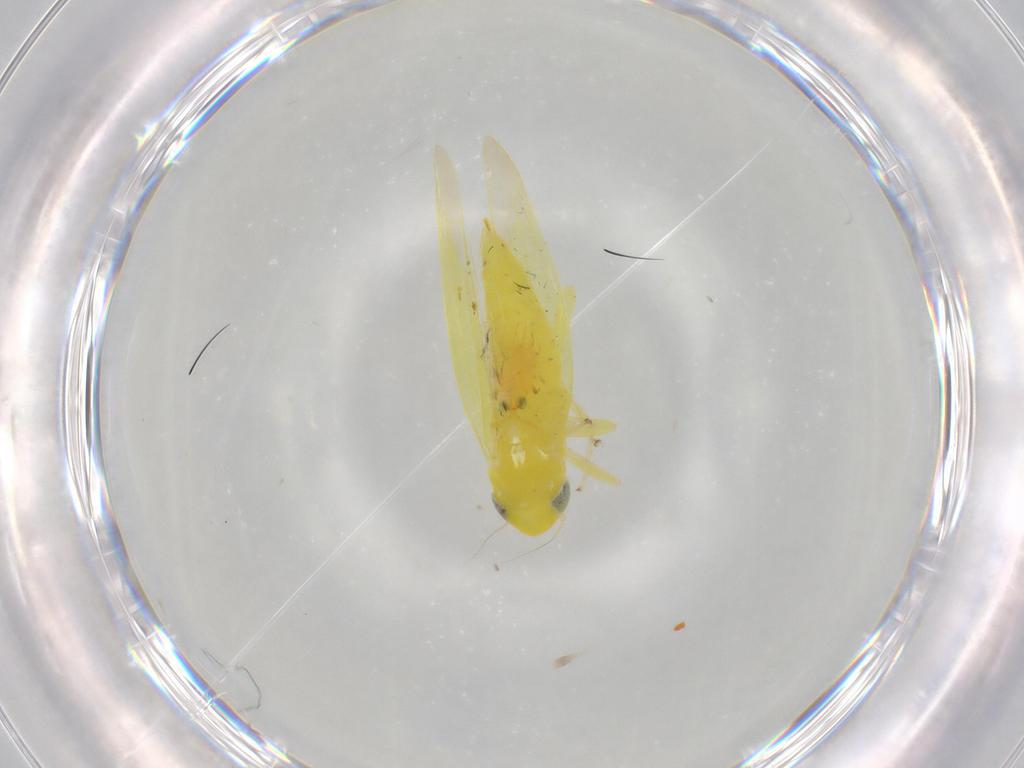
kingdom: Animalia
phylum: Arthropoda
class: Insecta
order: Hemiptera
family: Cicadellidae
